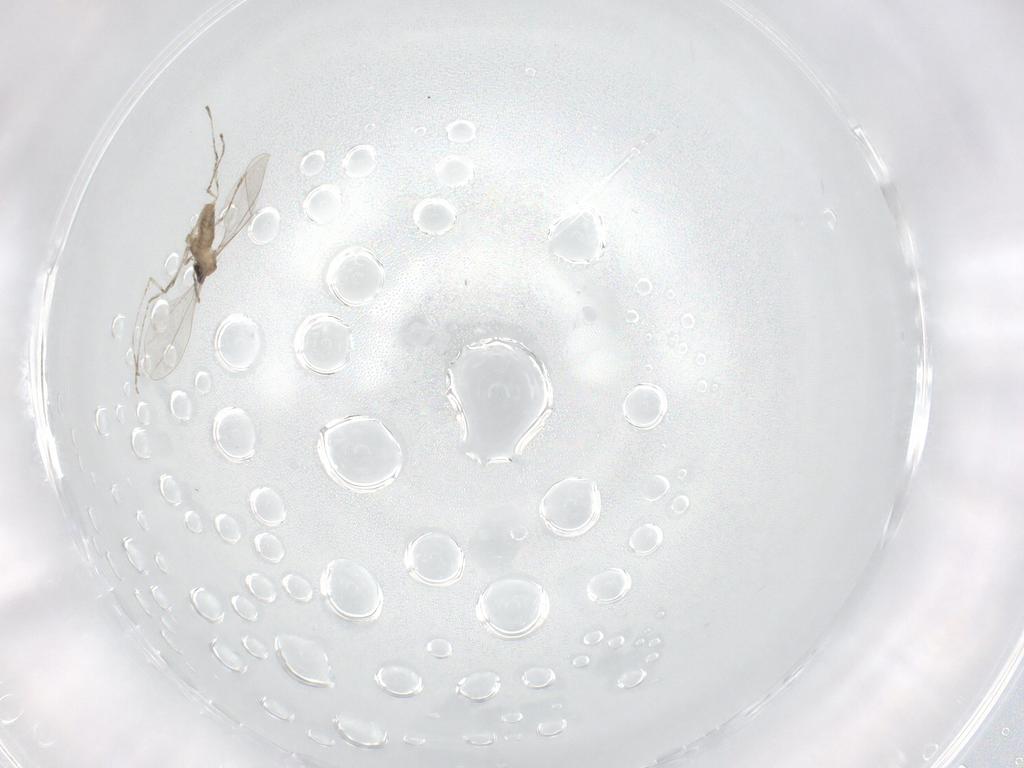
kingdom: Animalia
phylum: Arthropoda
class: Insecta
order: Diptera
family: Cecidomyiidae
